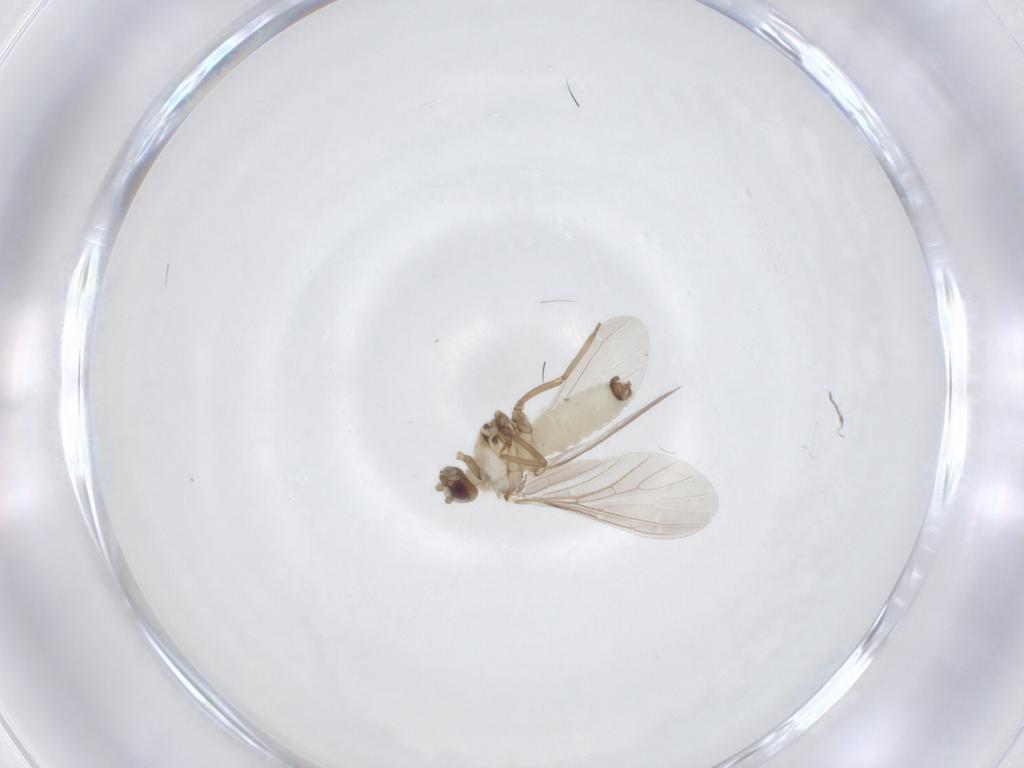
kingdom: Animalia
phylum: Arthropoda
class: Insecta
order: Neuroptera
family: Coniopterygidae
